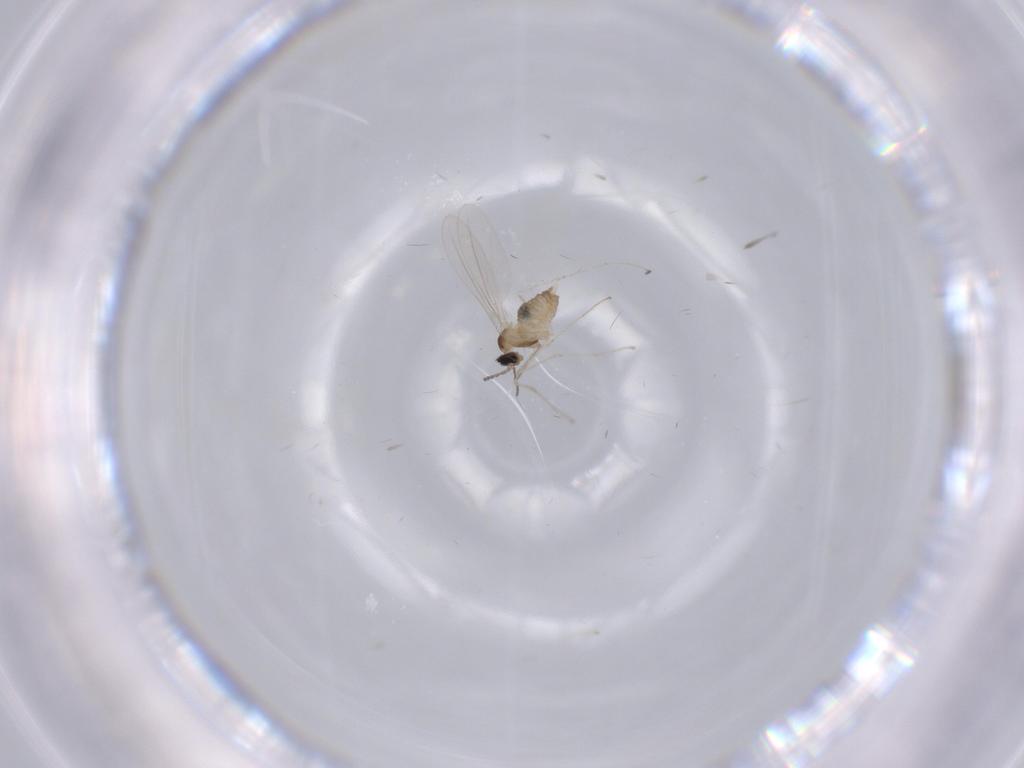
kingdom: Animalia
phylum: Arthropoda
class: Insecta
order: Diptera
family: Cecidomyiidae
